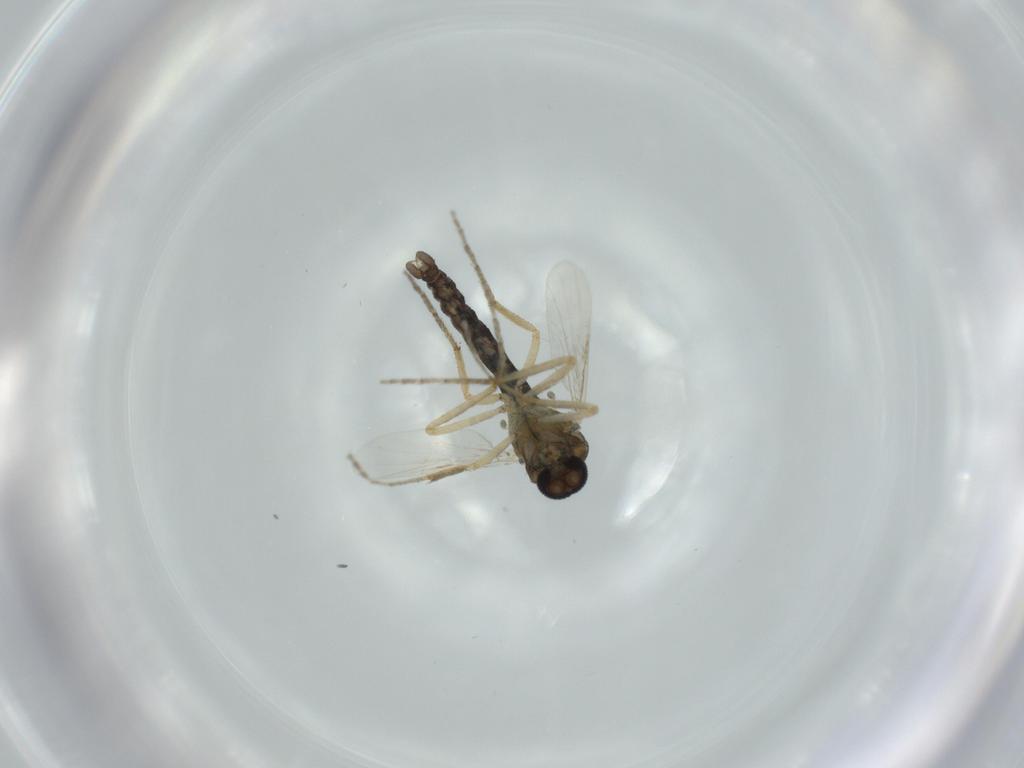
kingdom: Animalia
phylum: Arthropoda
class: Insecta
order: Diptera
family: Ceratopogonidae
